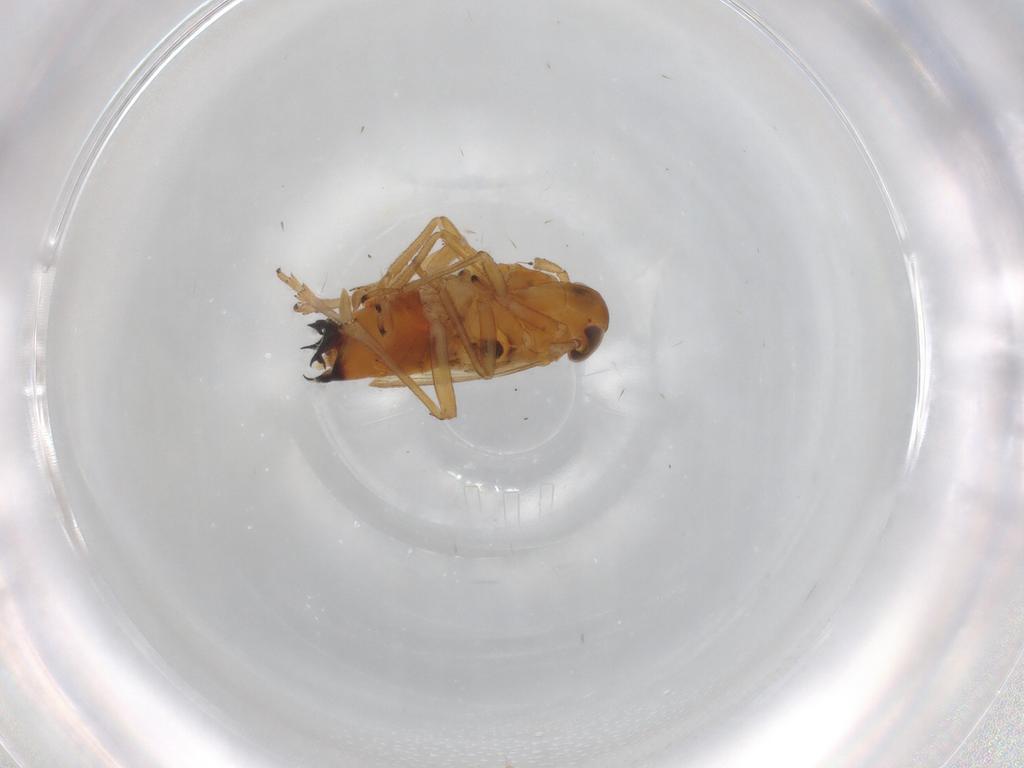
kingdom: Animalia
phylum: Arthropoda
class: Insecta
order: Hemiptera
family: Delphacidae
